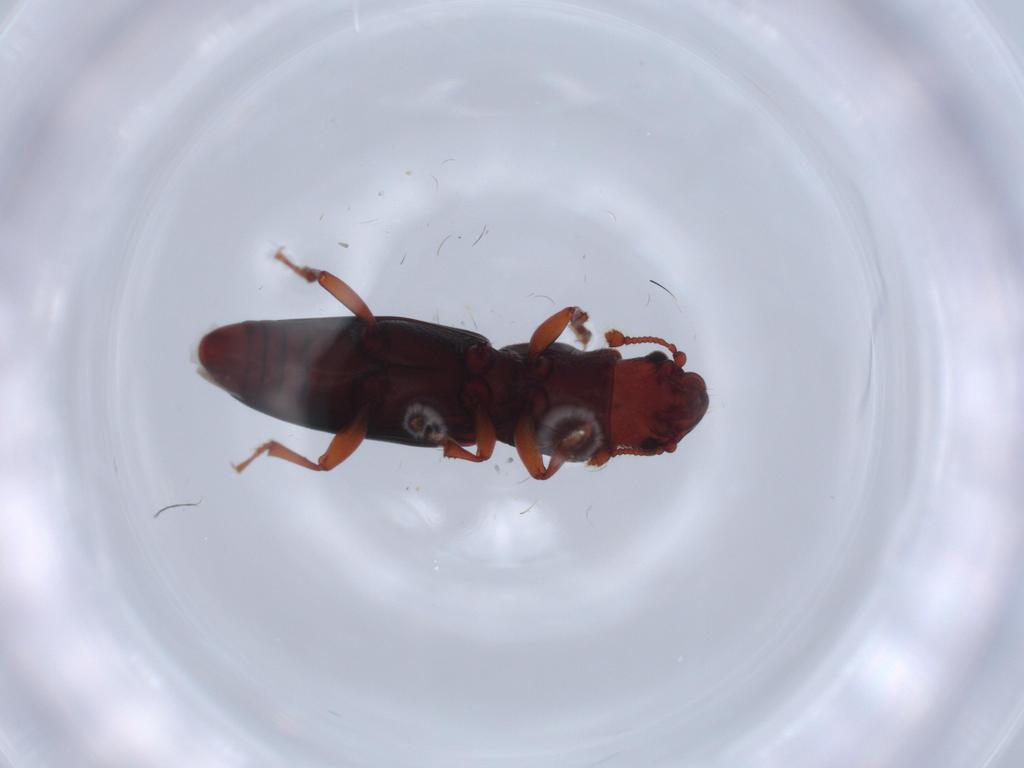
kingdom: Animalia
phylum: Arthropoda
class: Insecta
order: Coleoptera
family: Monotomidae
